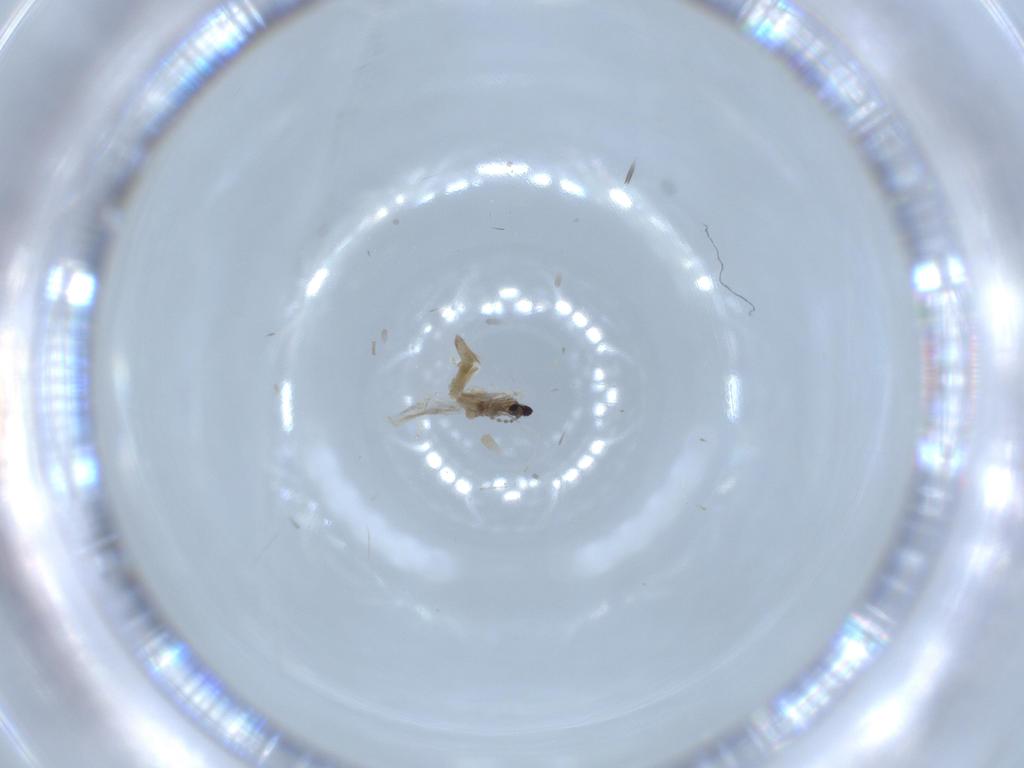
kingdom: Animalia
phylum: Arthropoda
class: Insecta
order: Diptera
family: Cecidomyiidae
